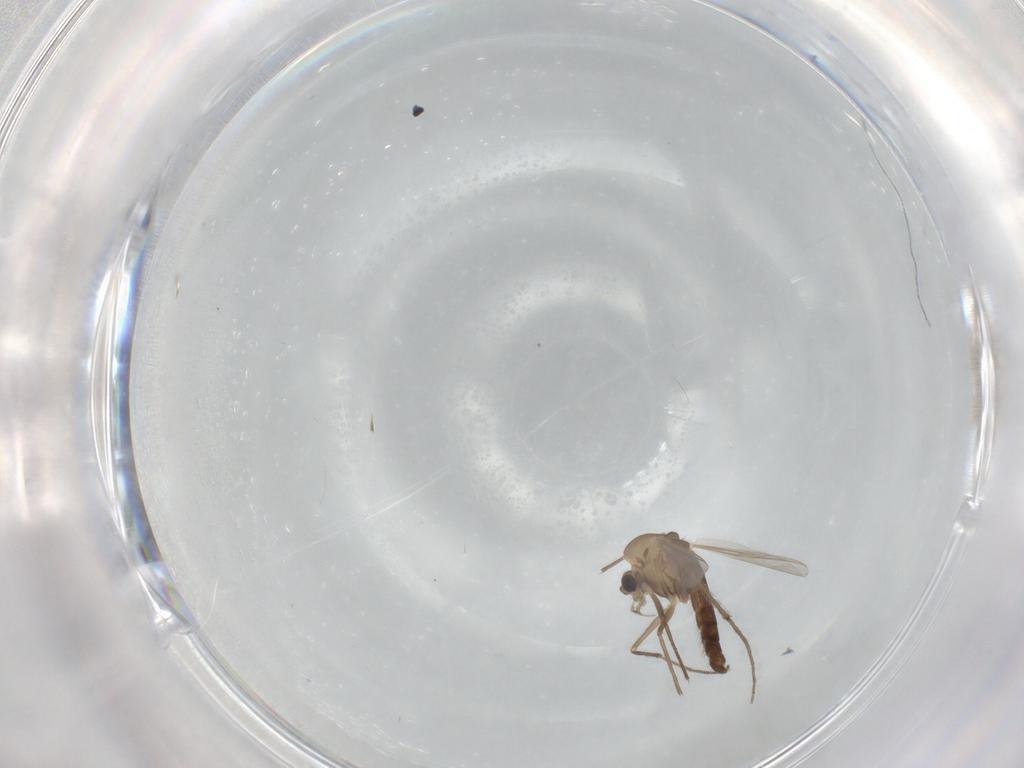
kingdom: Animalia
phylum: Arthropoda
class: Insecta
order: Diptera
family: Chironomidae
